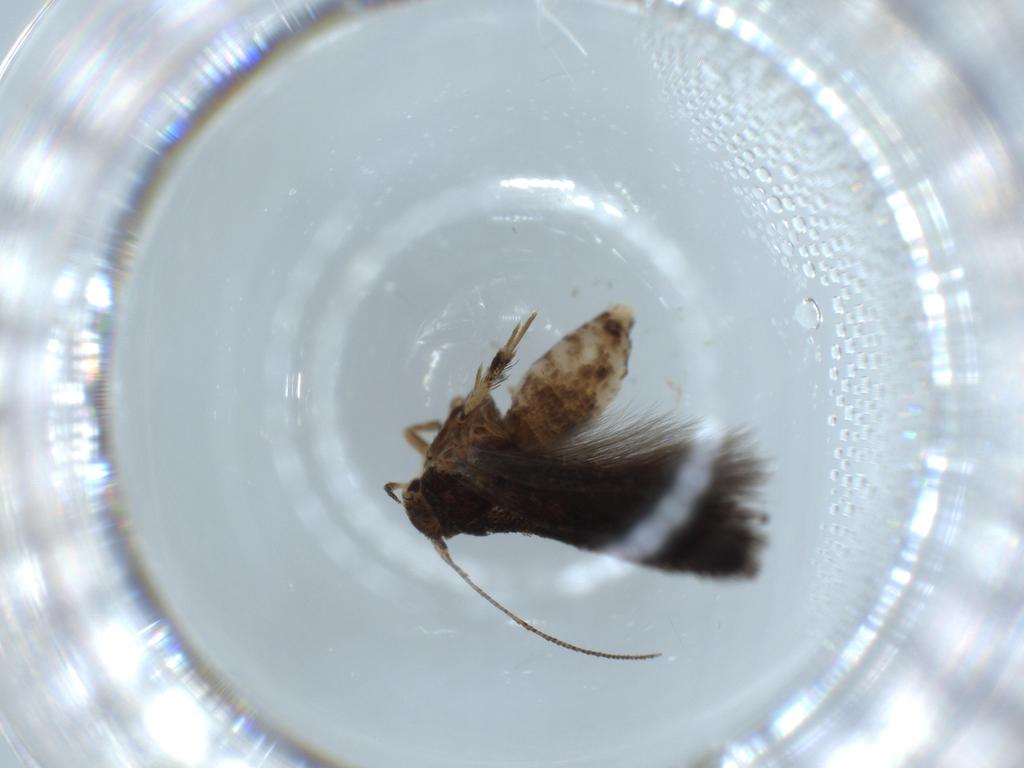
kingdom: Animalia
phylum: Arthropoda
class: Insecta
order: Lepidoptera
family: Gelechiidae
